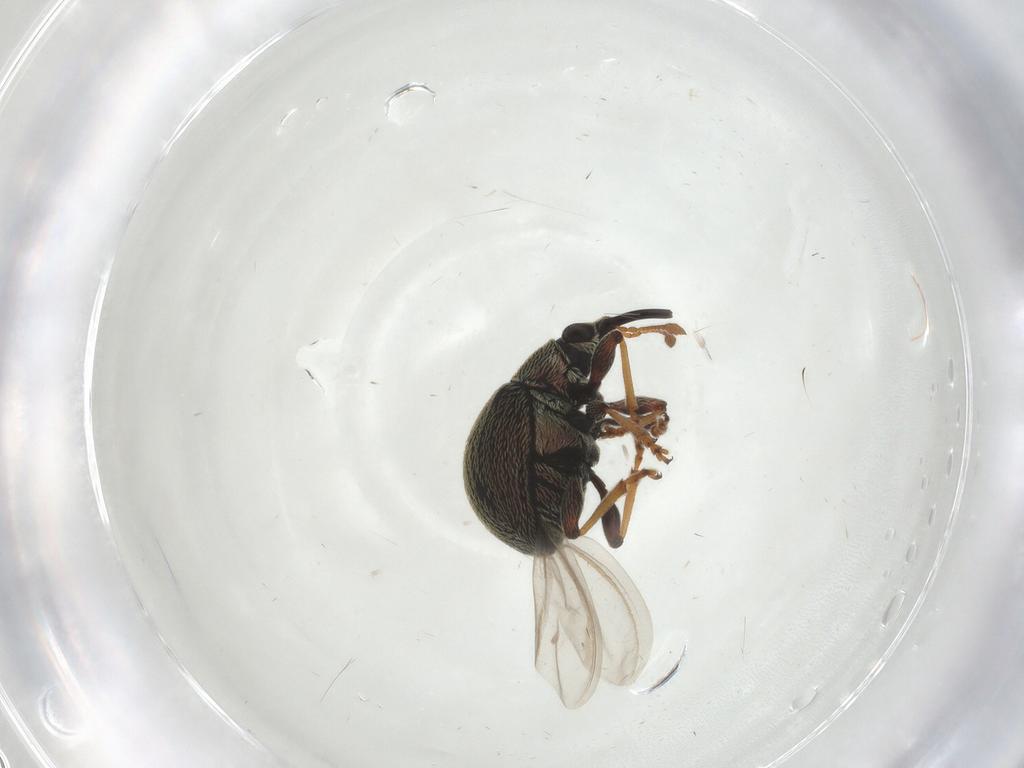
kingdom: Animalia
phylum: Arthropoda
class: Insecta
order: Coleoptera
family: Brentidae
